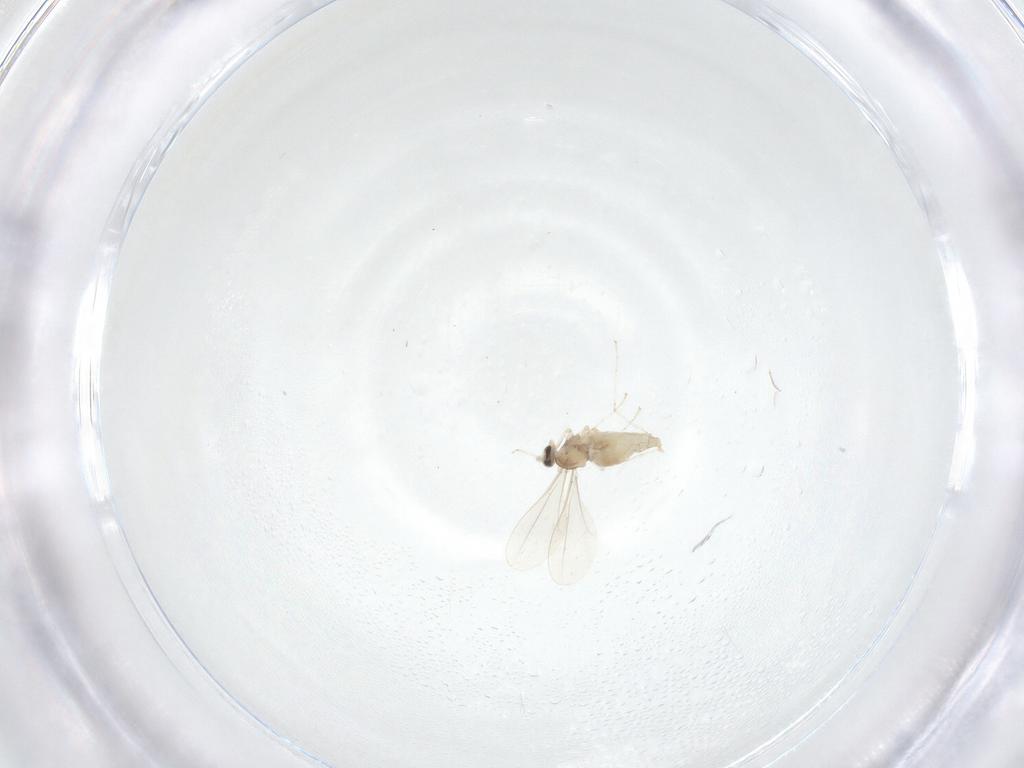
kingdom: Animalia
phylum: Arthropoda
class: Insecta
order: Diptera
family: Cecidomyiidae
